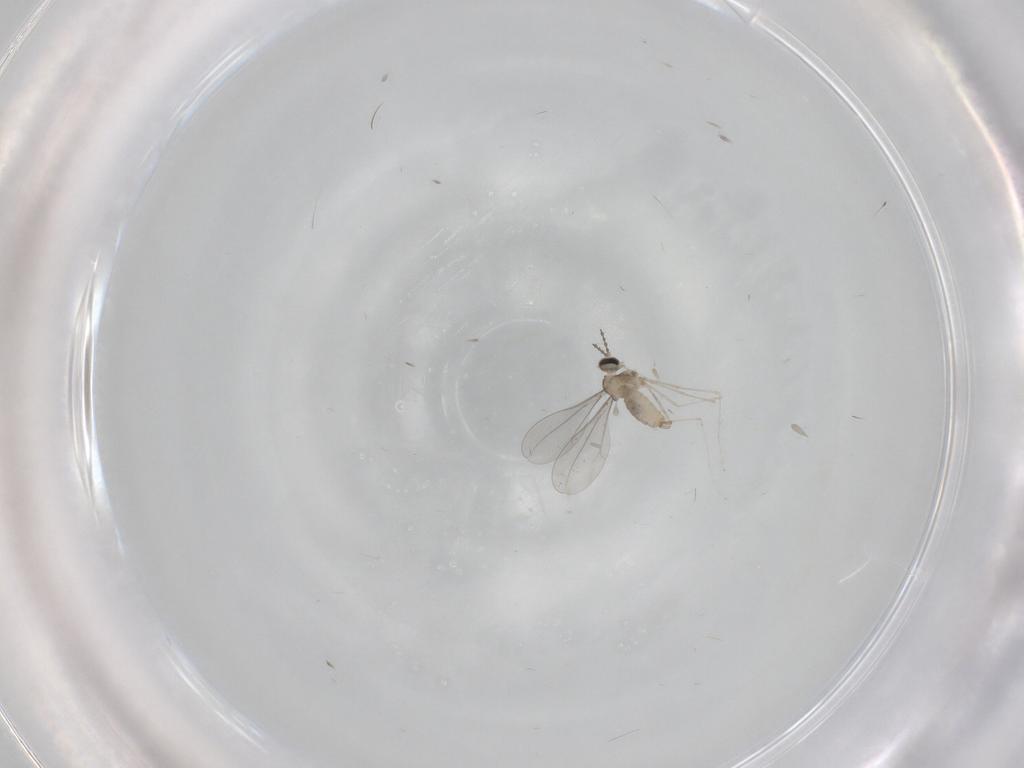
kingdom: Animalia
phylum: Arthropoda
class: Insecta
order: Diptera
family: Cecidomyiidae
